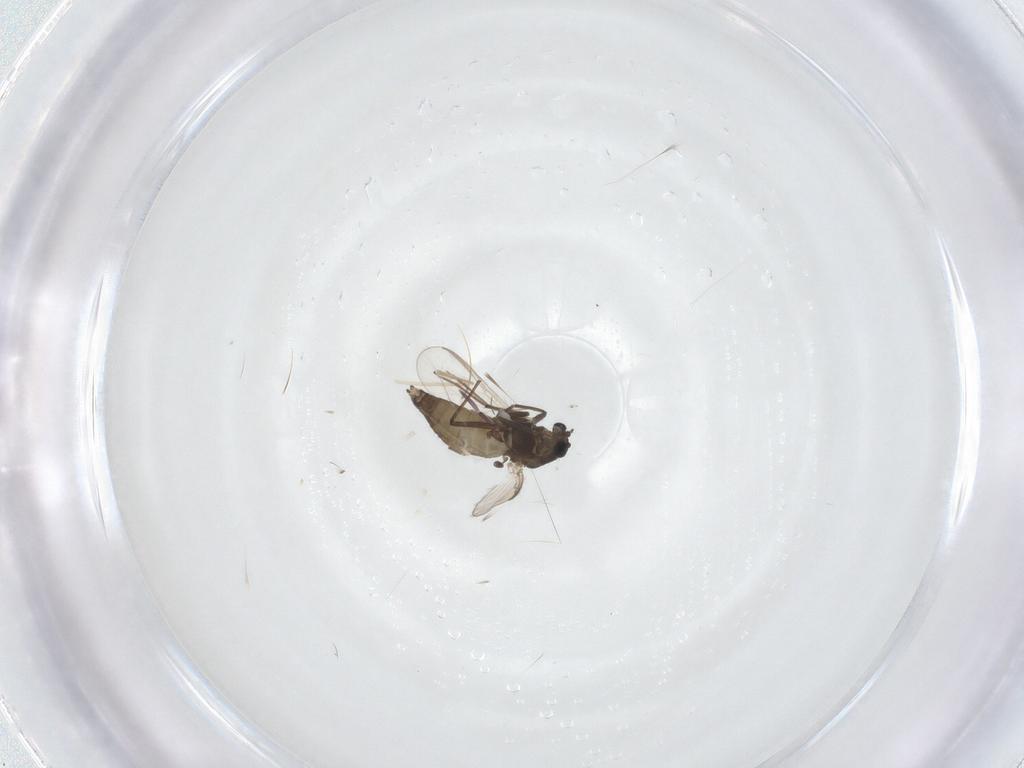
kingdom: Animalia
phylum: Arthropoda
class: Insecta
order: Diptera
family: Chironomidae
